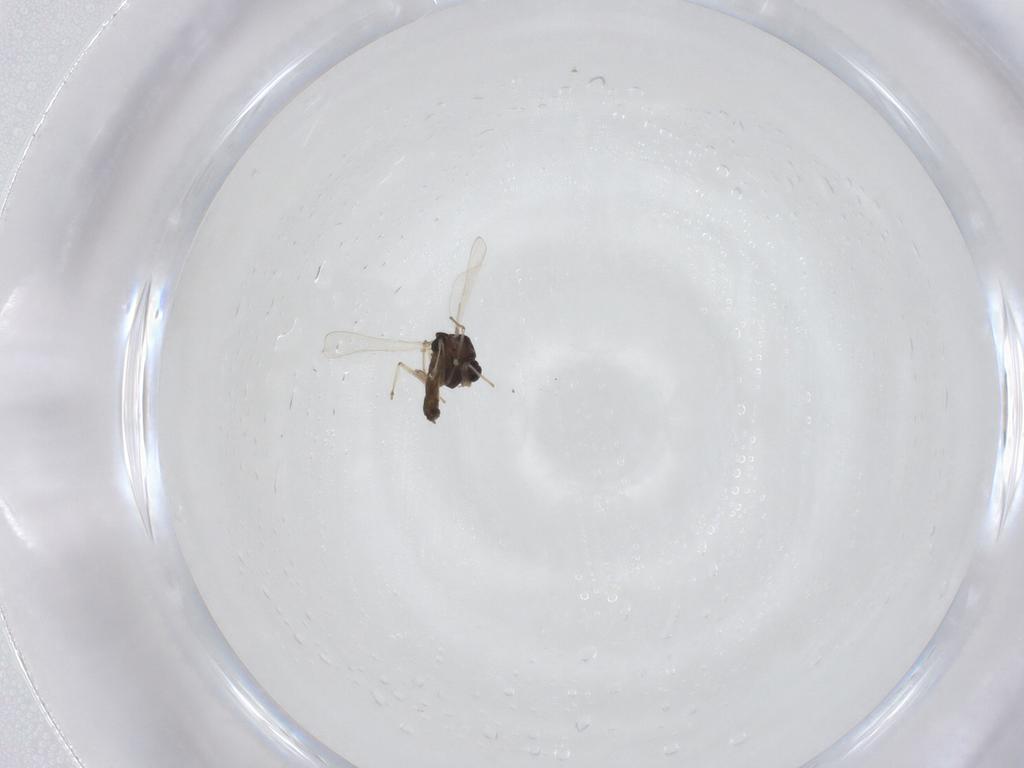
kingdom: Animalia
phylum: Arthropoda
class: Insecta
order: Diptera
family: Chironomidae
